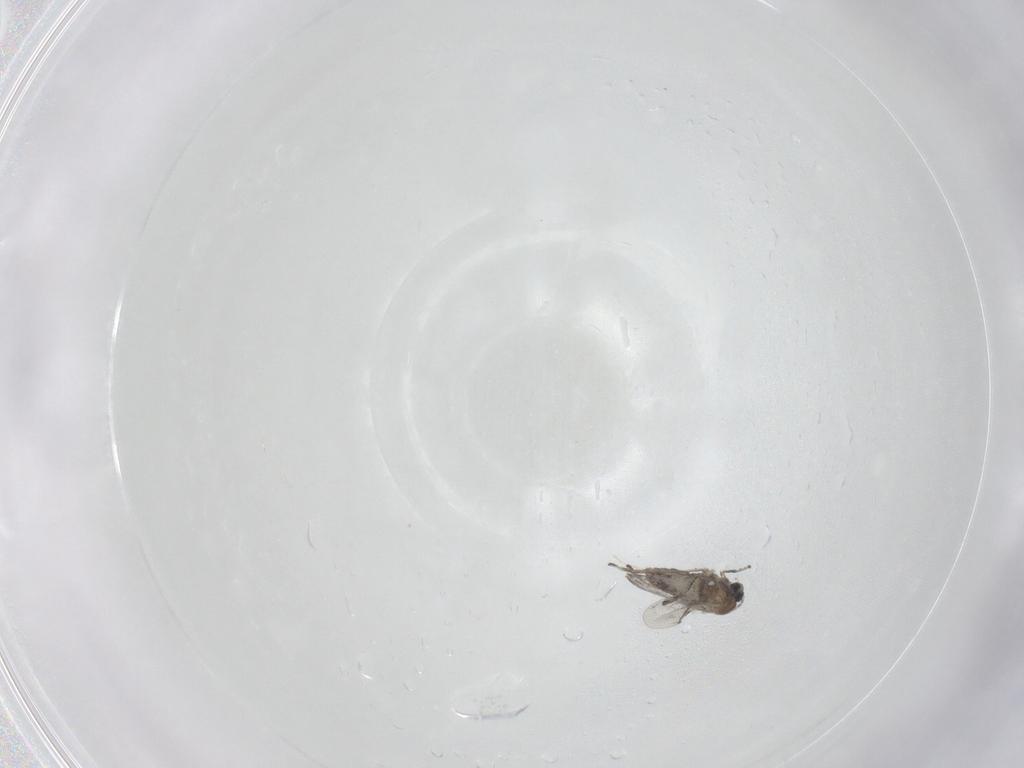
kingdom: Animalia
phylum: Arthropoda
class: Insecta
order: Diptera
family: Cecidomyiidae
